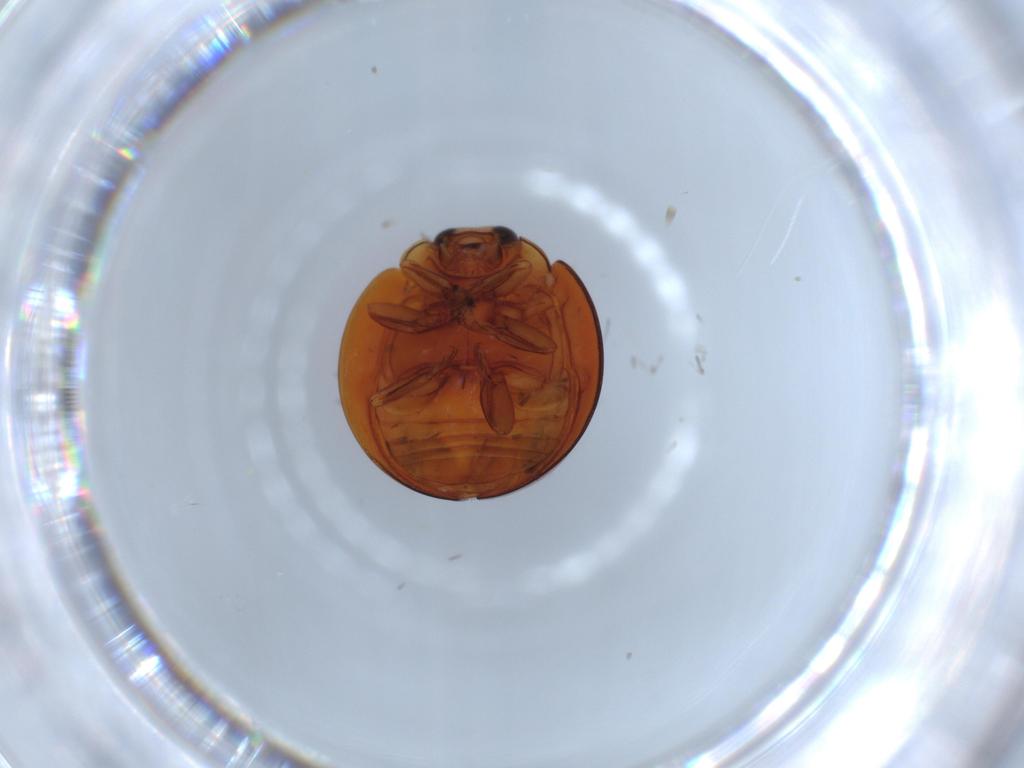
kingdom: Animalia
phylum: Arthropoda
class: Insecta
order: Coleoptera
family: Coccinellidae
